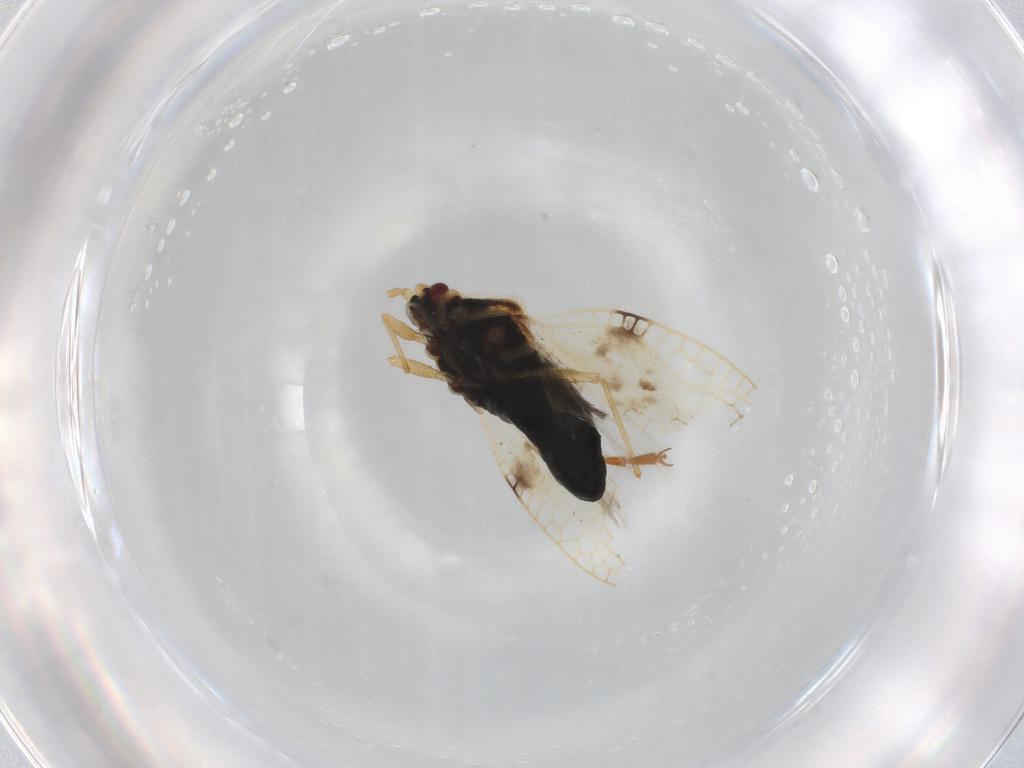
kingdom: Animalia
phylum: Arthropoda
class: Insecta
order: Hemiptera
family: Tingidae
